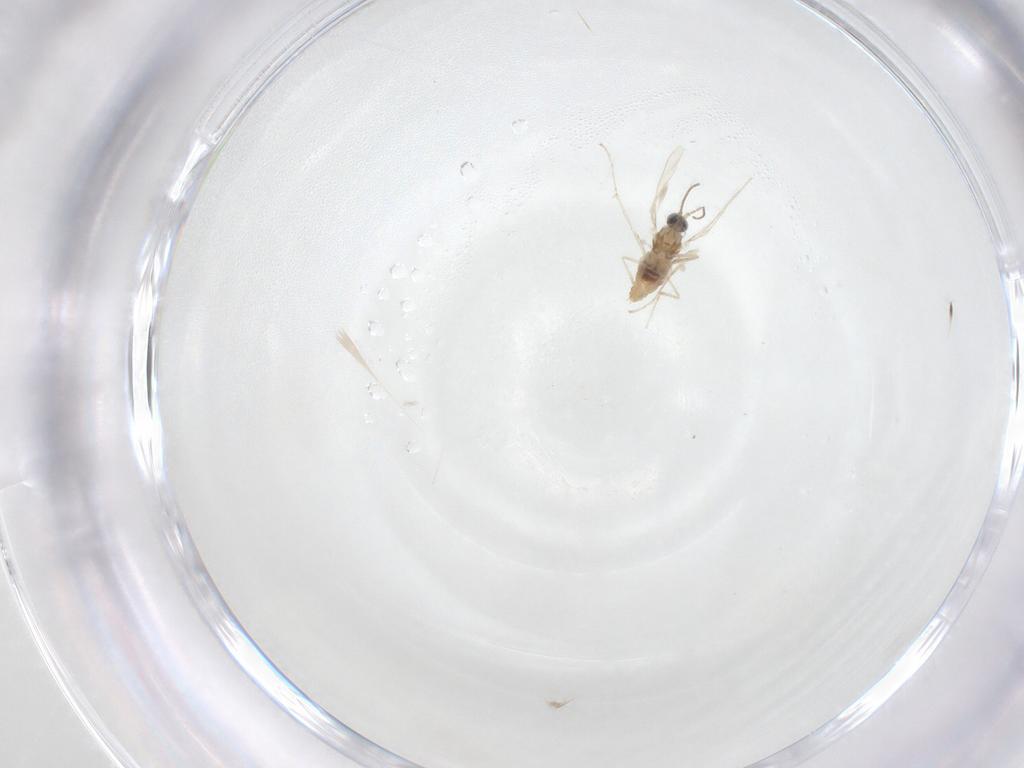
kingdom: Animalia
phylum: Arthropoda
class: Insecta
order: Diptera
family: Cecidomyiidae
